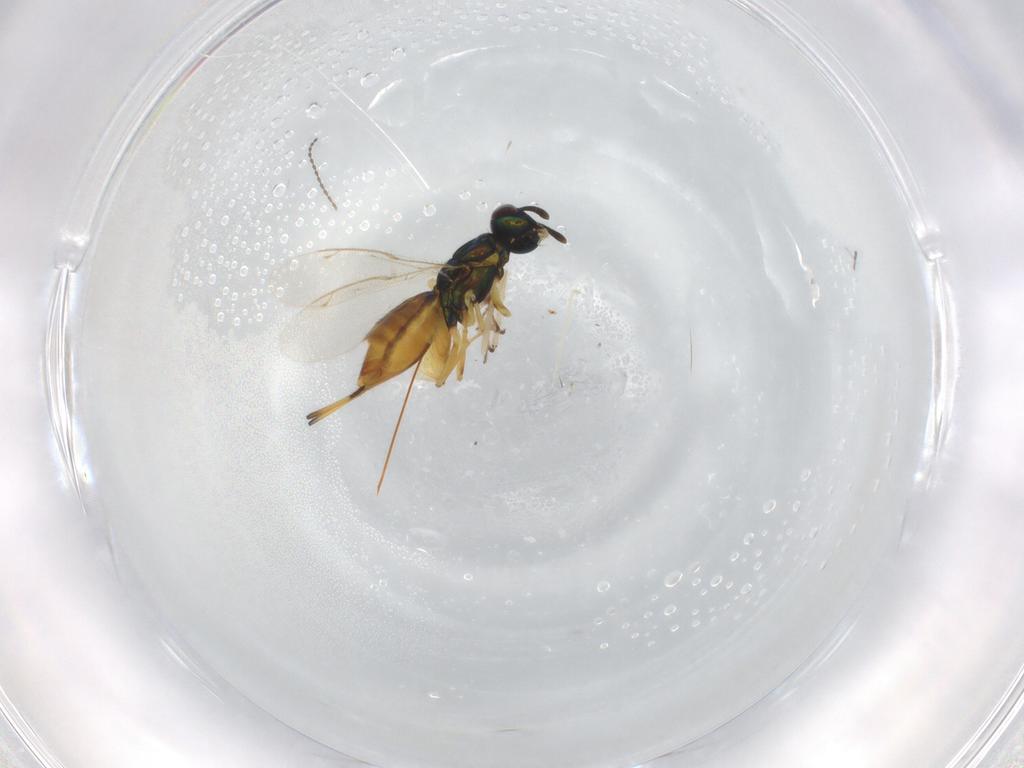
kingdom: Animalia
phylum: Arthropoda
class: Insecta
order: Hymenoptera
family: Eupelmidae
